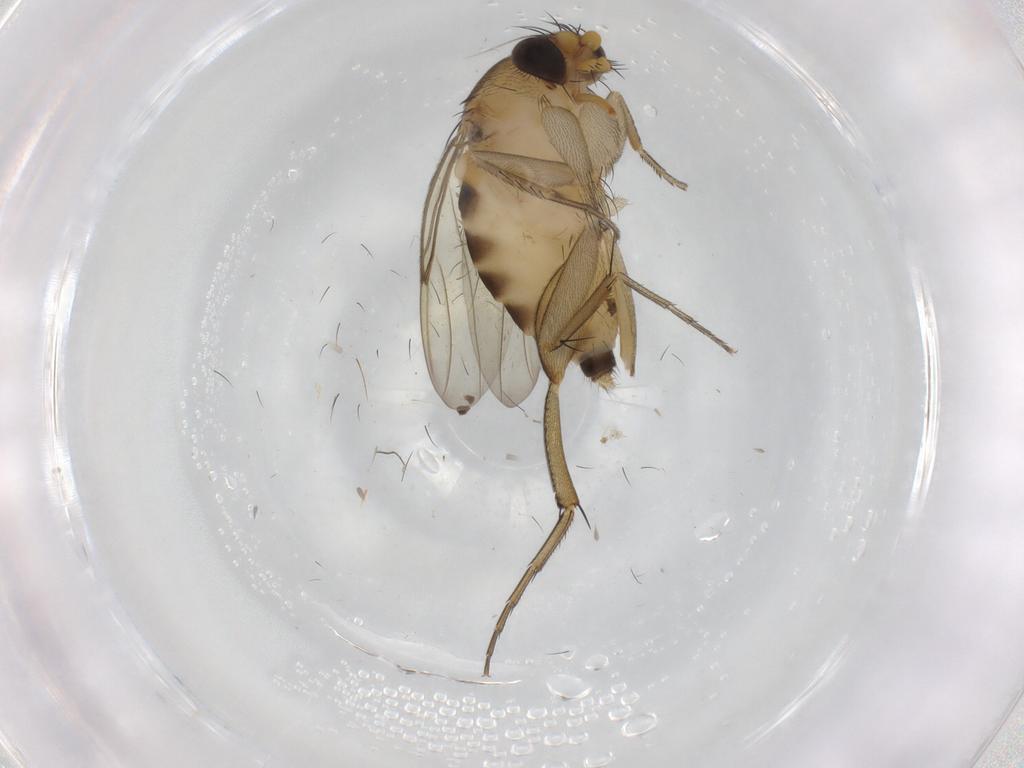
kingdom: Animalia
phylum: Arthropoda
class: Insecta
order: Diptera
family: Phoridae
